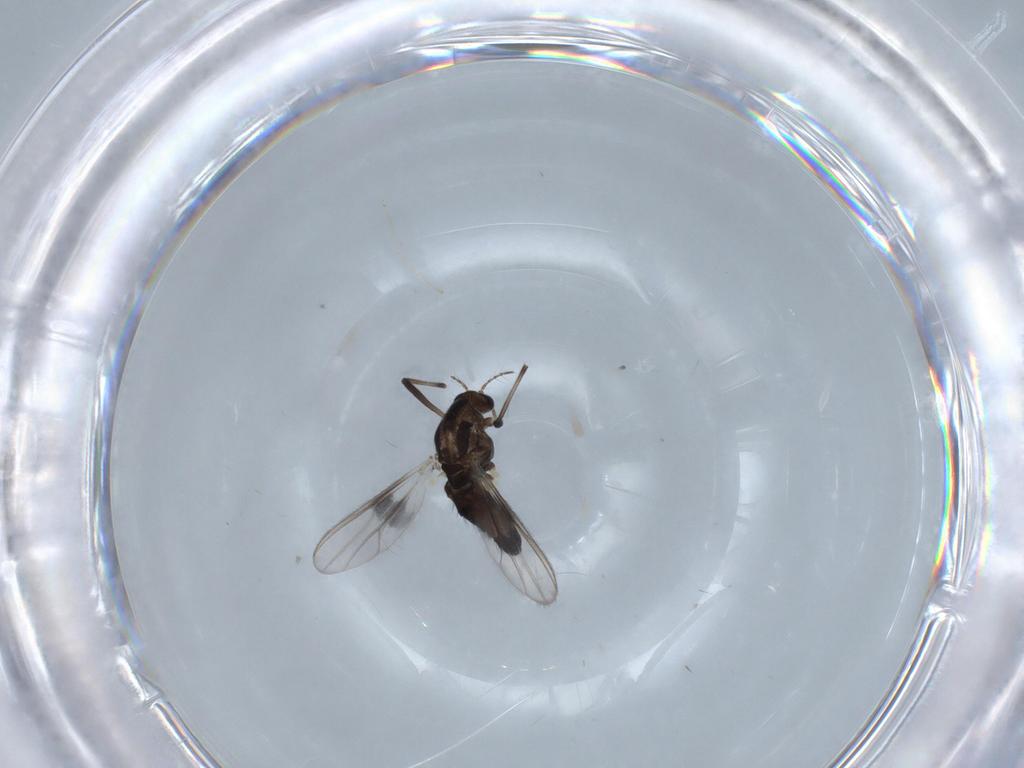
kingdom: Animalia
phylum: Arthropoda
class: Insecta
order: Diptera
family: Chironomidae
